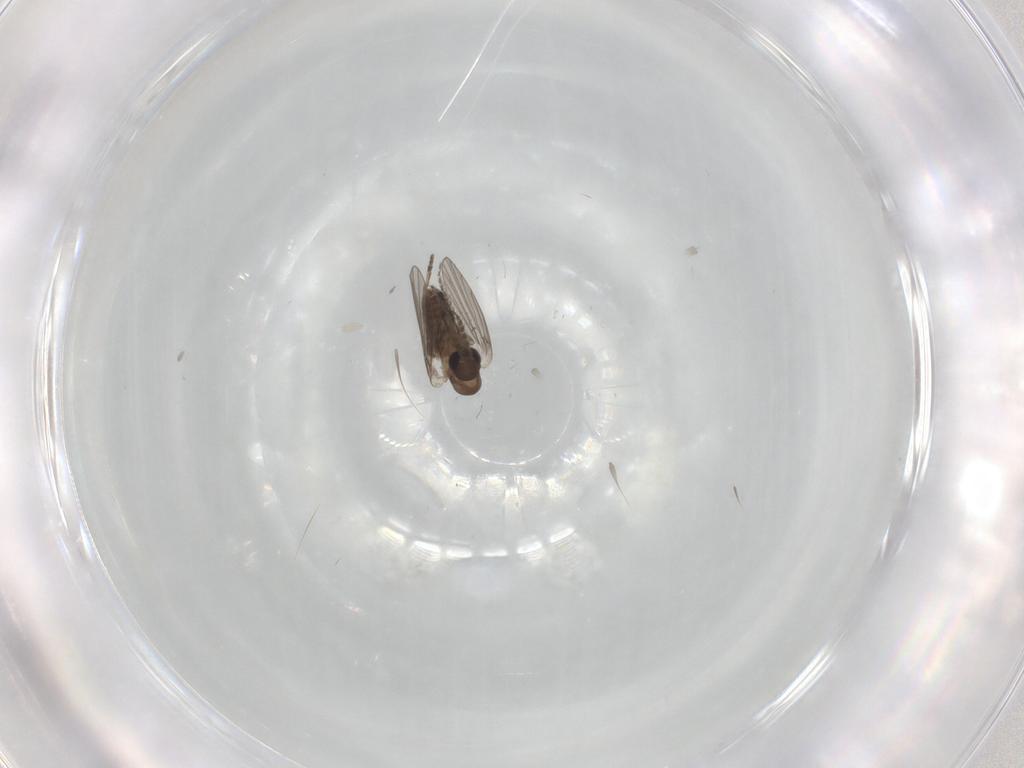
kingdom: Animalia
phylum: Arthropoda
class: Insecta
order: Diptera
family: Drosophilidae
